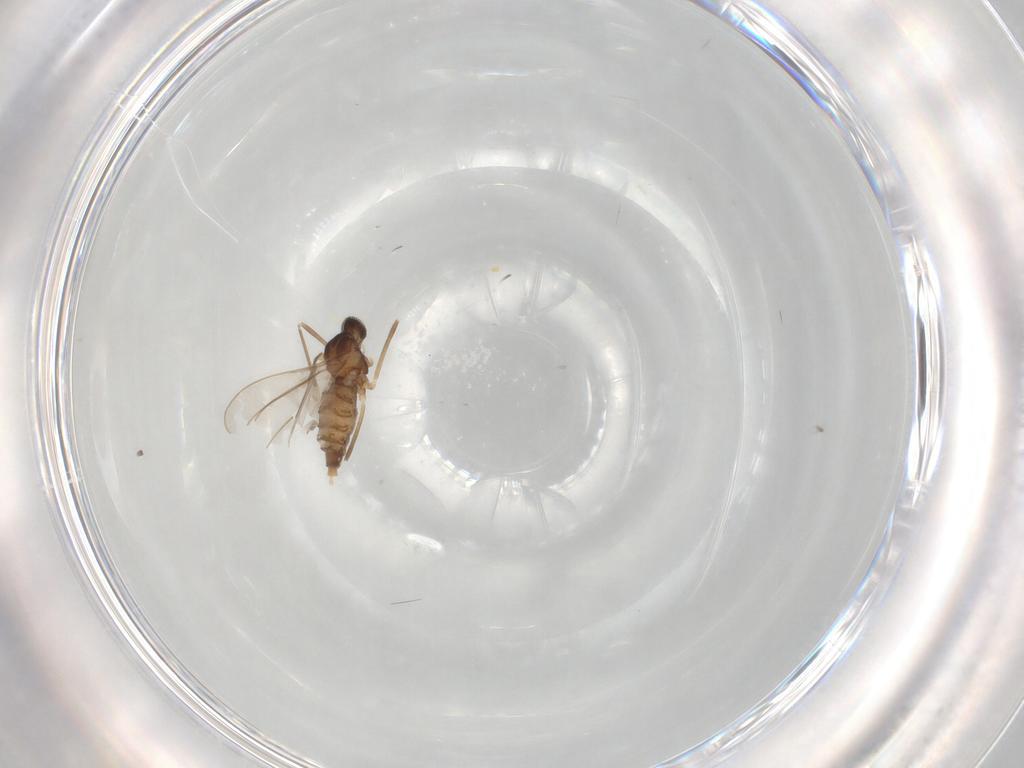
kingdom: Animalia
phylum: Arthropoda
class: Insecta
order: Diptera
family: Cecidomyiidae
